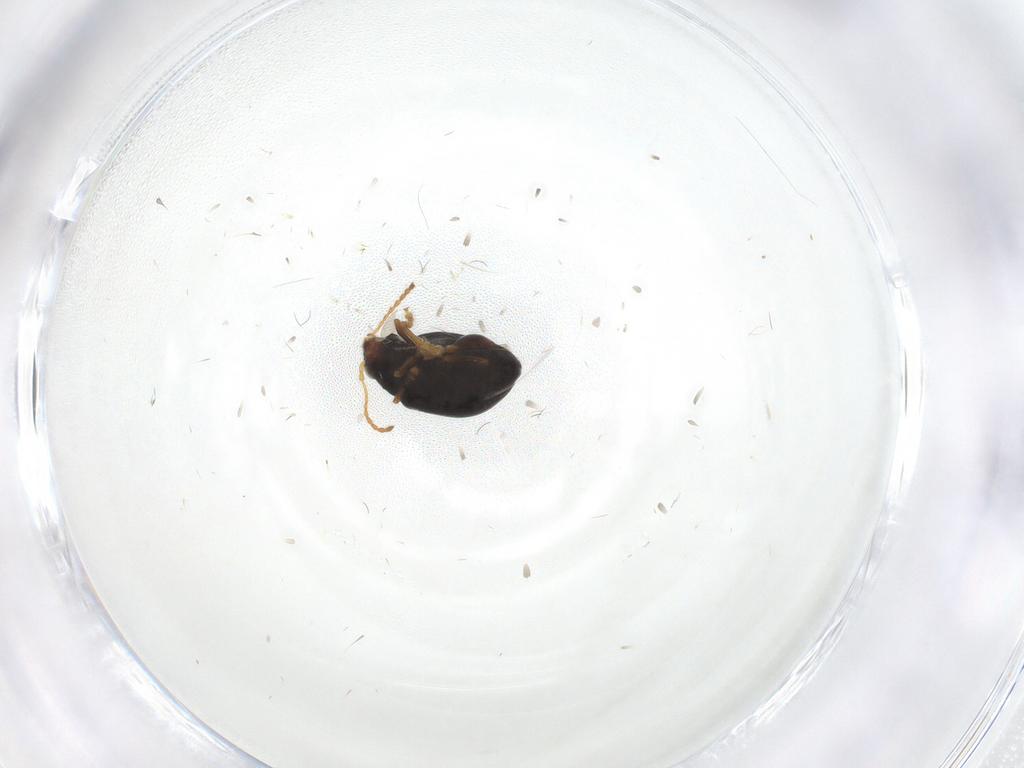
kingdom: Animalia
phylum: Arthropoda
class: Insecta
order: Coleoptera
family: Chrysomelidae
